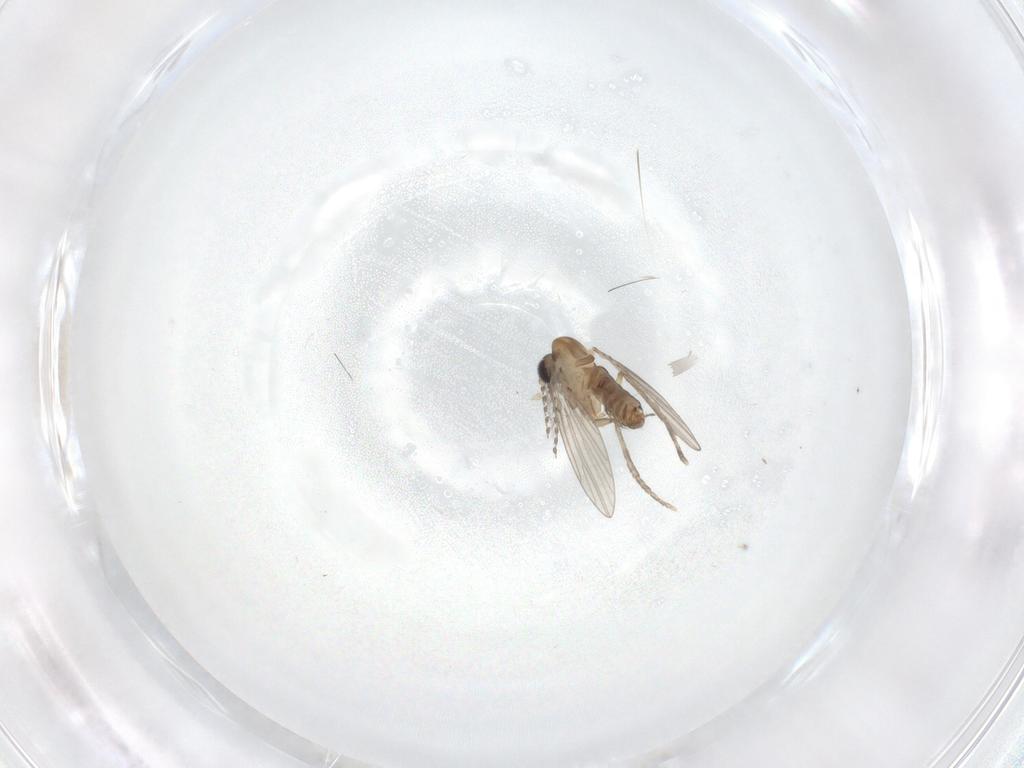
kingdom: Animalia
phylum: Arthropoda
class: Insecta
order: Diptera
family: Chironomidae
